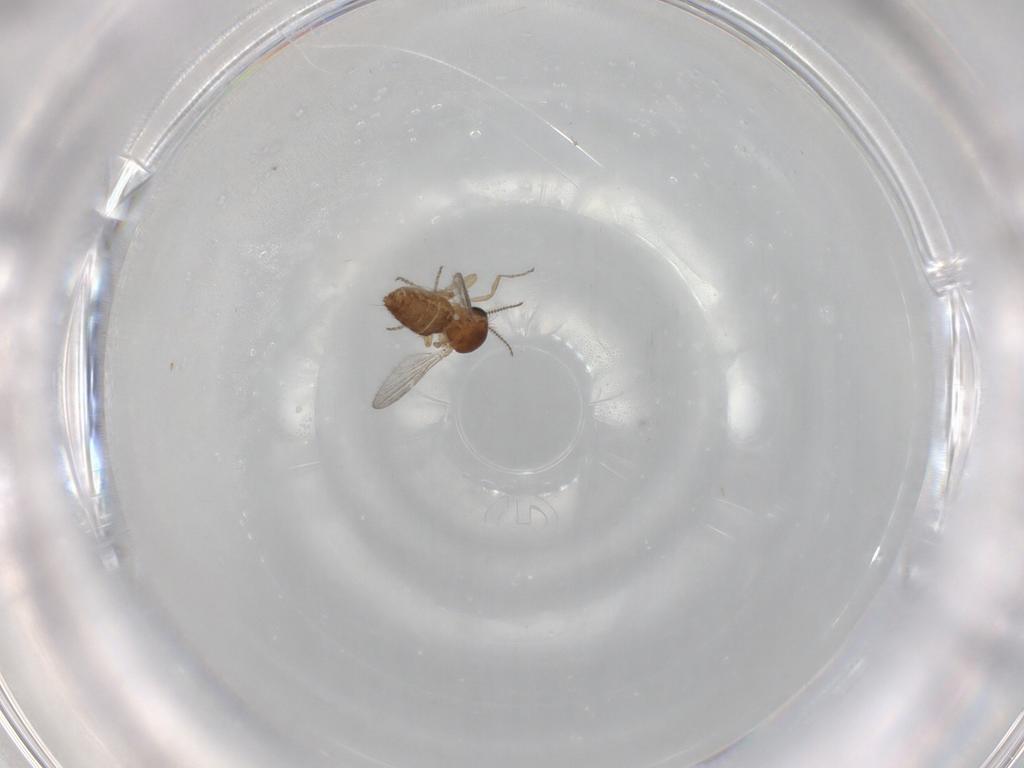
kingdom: Animalia
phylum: Arthropoda
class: Insecta
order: Diptera
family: Ceratopogonidae
